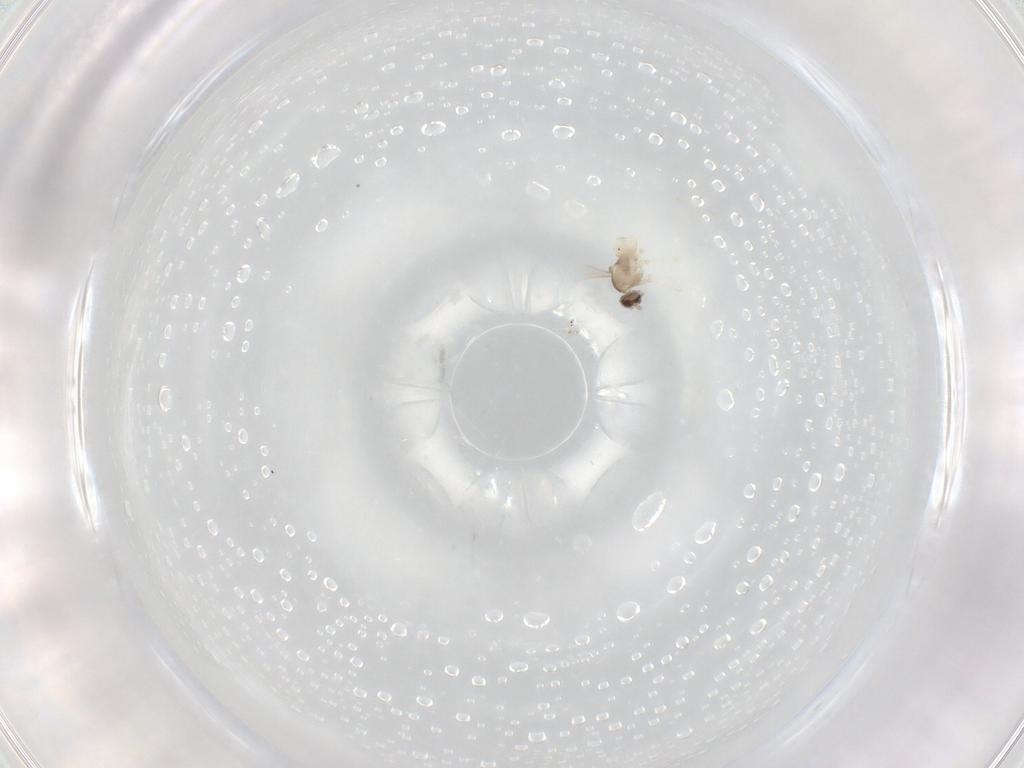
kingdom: Animalia
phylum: Arthropoda
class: Insecta
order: Diptera
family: Cecidomyiidae
